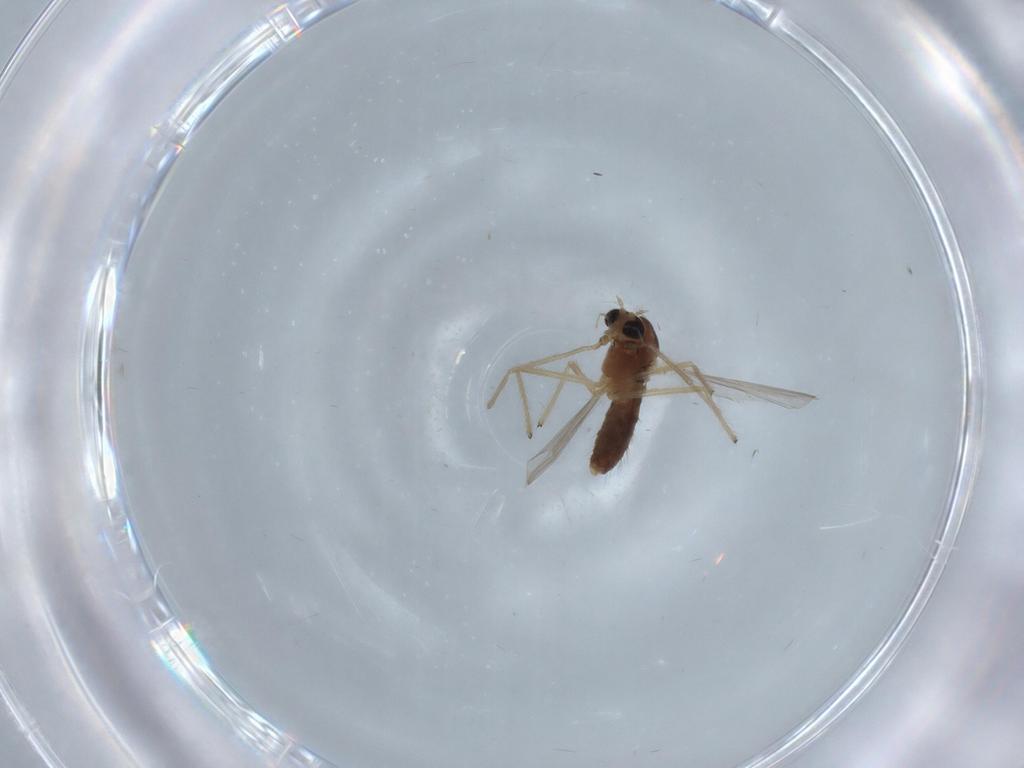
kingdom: Animalia
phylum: Arthropoda
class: Insecta
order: Diptera
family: Chironomidae
